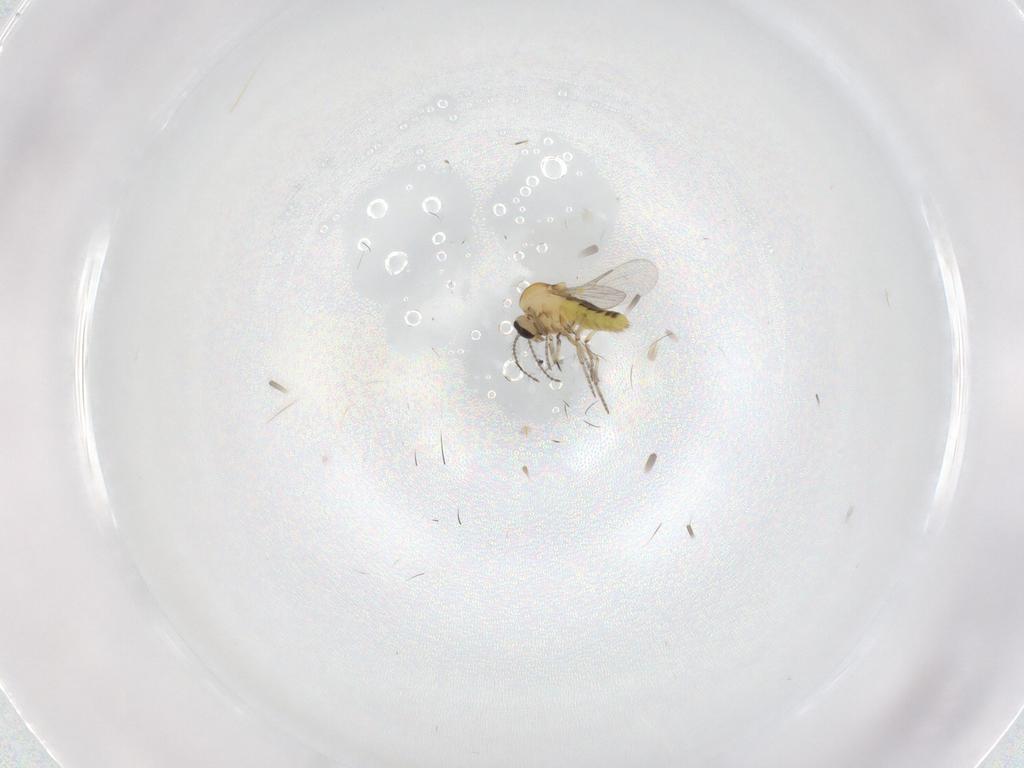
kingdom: Animalia
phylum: Arthropoda
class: Insecta
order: Diptera
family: Ceratopogonidae
